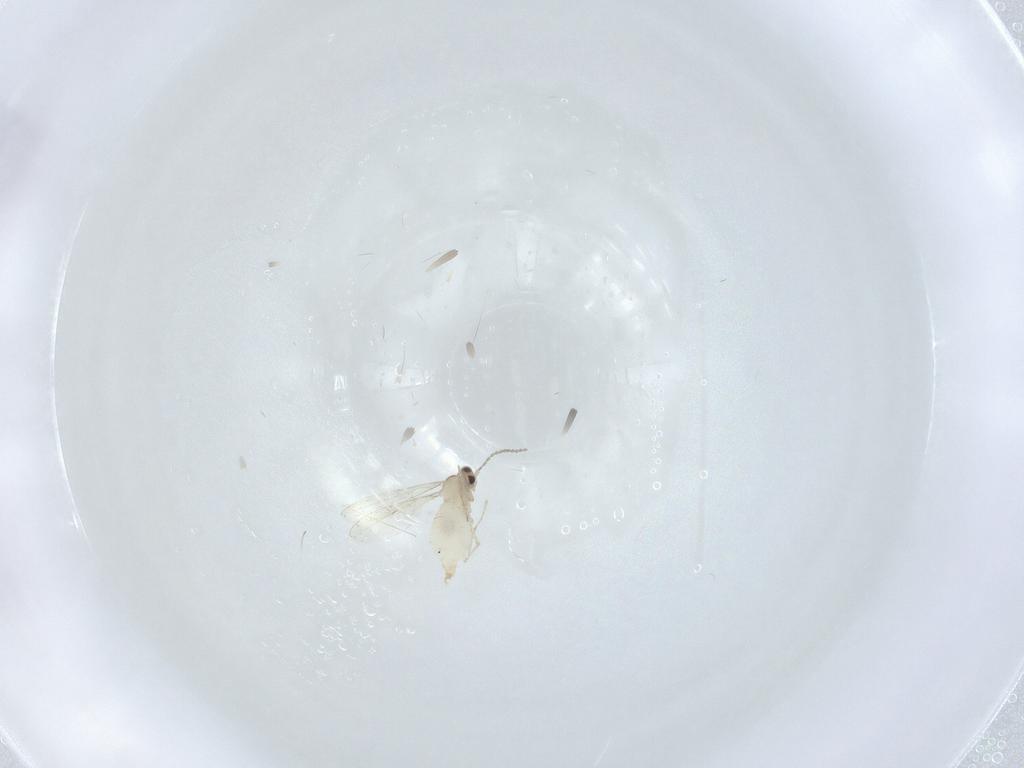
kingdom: Animalia
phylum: Arthropoda
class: Insecta
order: Diptera
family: Cecidomyiidae
